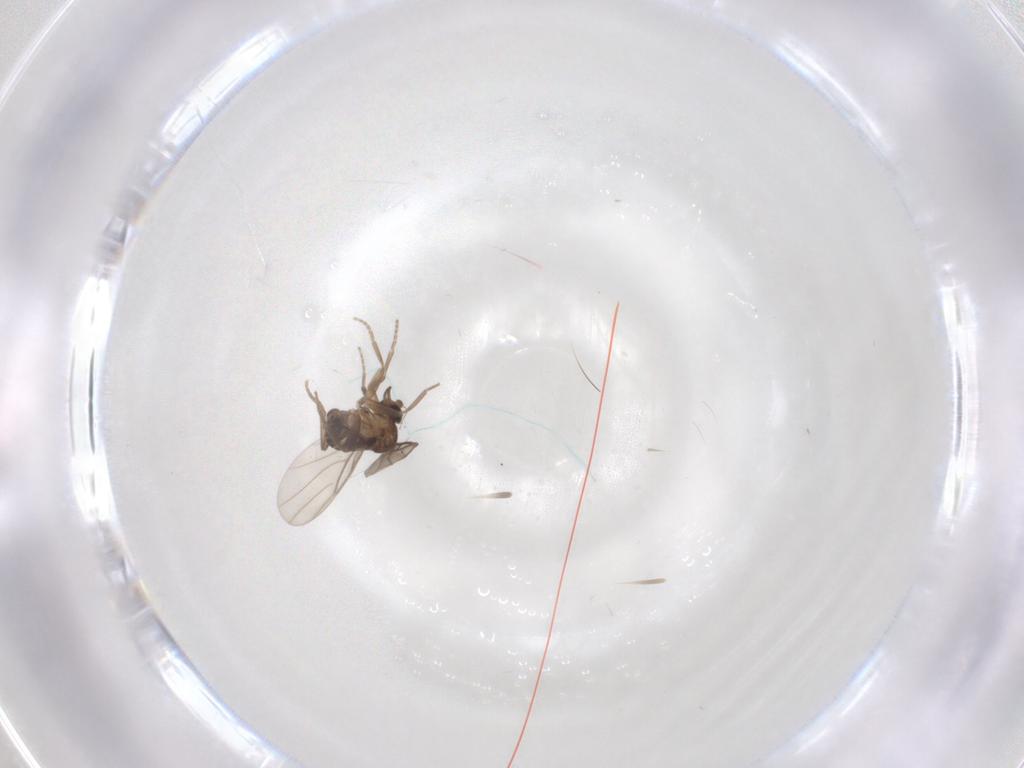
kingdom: Animalia
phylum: Arthropoda
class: Insecta
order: Diptera
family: Phoridae
